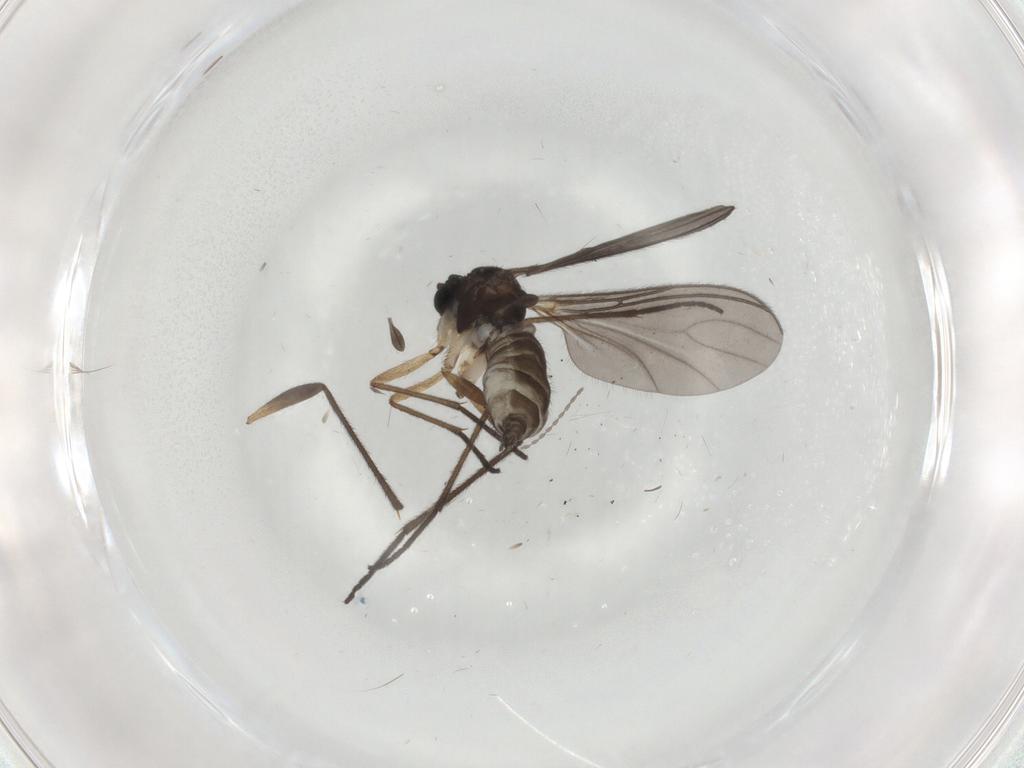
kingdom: Animalia
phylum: Arthropoda
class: Insecta
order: Diptera
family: Sciaridae
